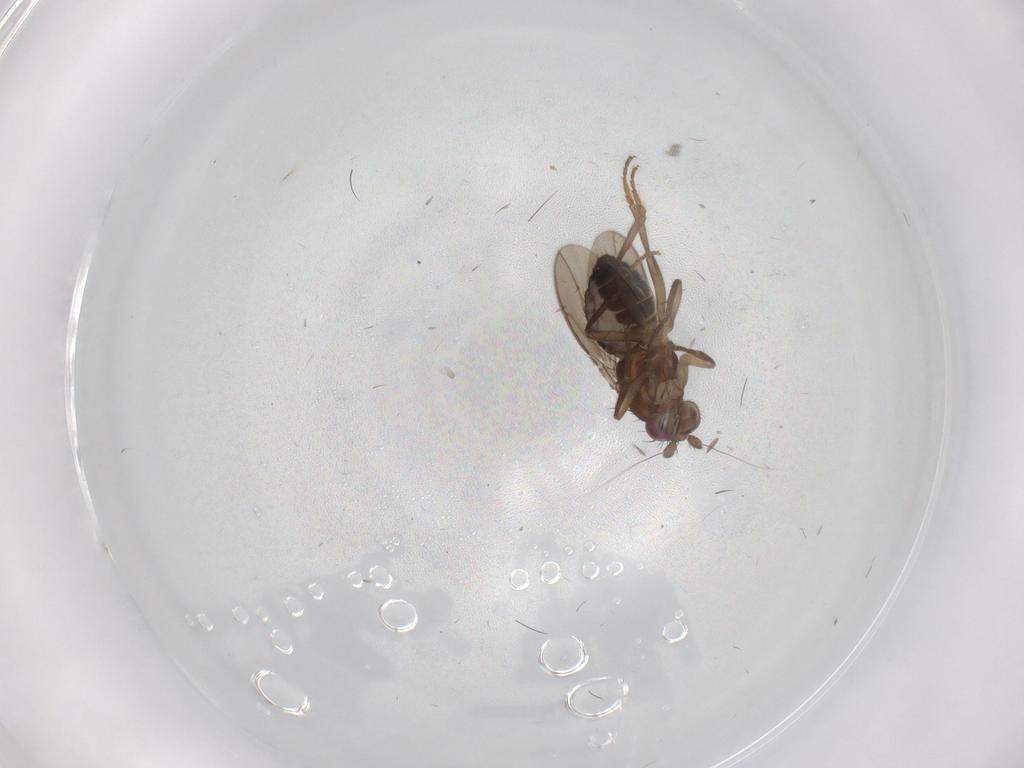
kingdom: Animalia
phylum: Arthropoda
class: Insecta
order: Diptera
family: Sphaeroceridae
